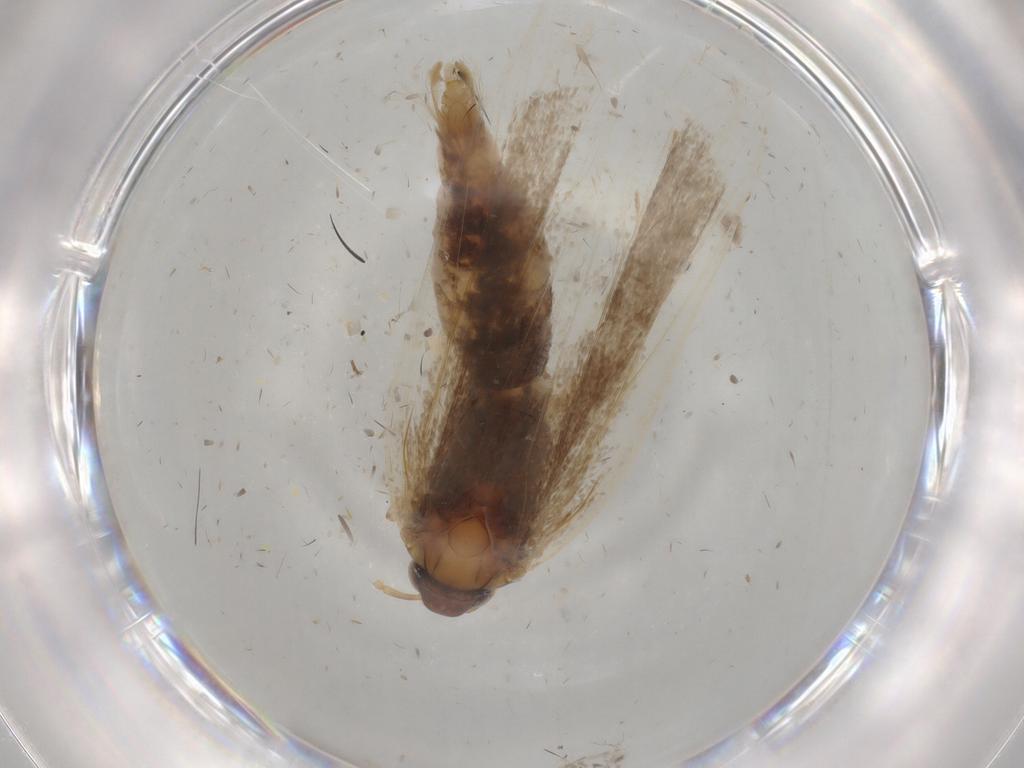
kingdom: Animalia
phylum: Arthropoda
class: Insecta
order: Lepidoptera
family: Gelechiidae
